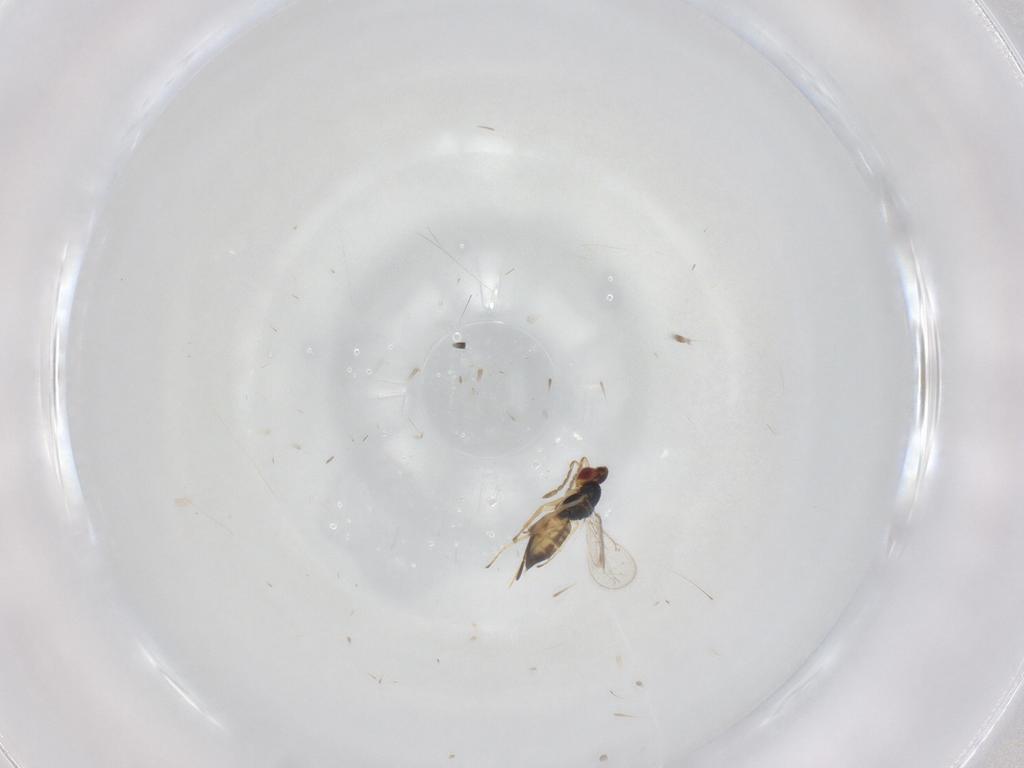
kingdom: Animalia
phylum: Arthropoda
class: Insecta
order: Hymenoptera
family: Eulophidae
